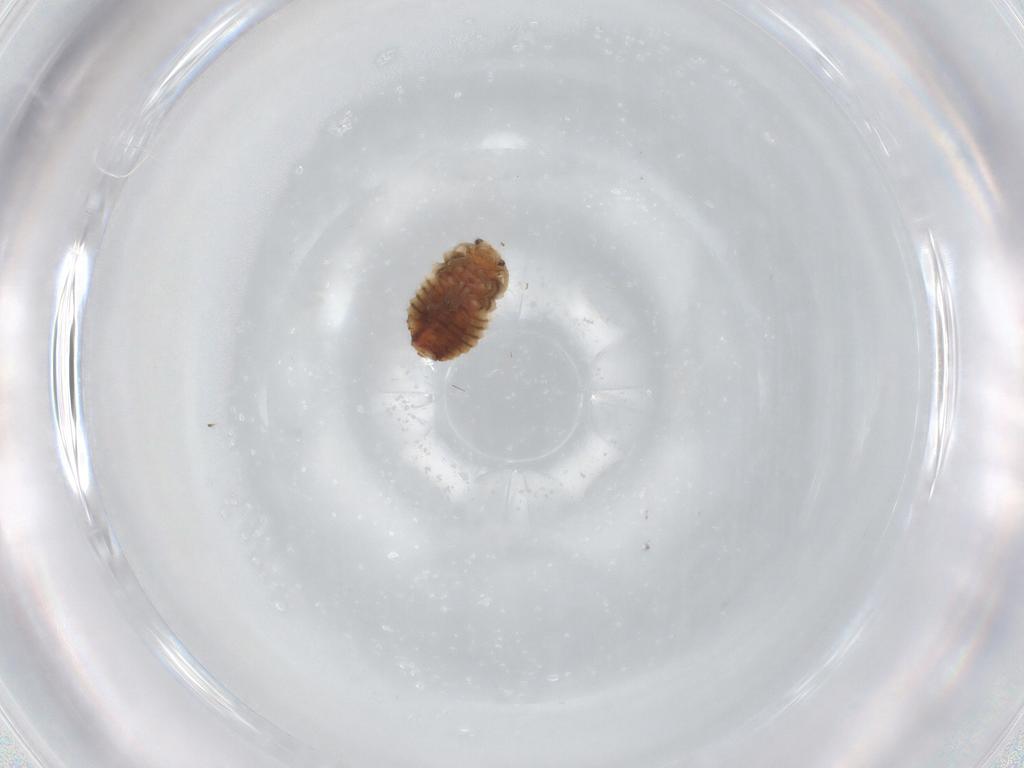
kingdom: Animalia
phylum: Arthropoda
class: Insecta
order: Coleoptera
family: Coccinellidae
